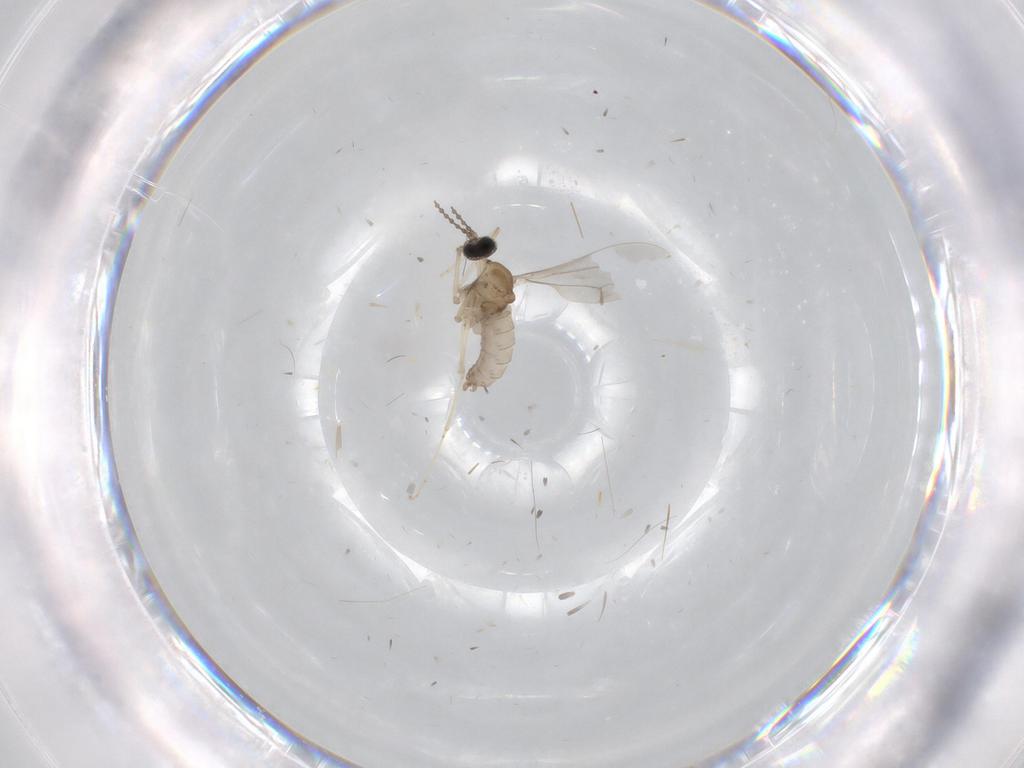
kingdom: Animalia
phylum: Arthropoda
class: Insecta
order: Diptera
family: Cecidomyiidae
